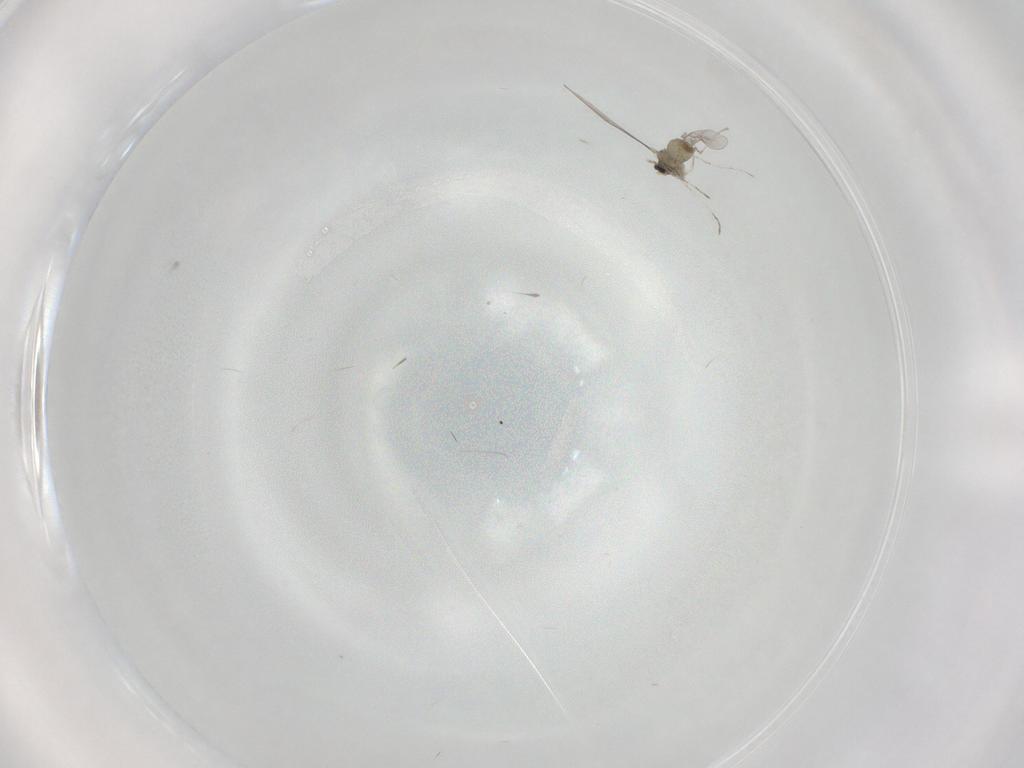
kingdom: Animalia
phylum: Arthropoda
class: Insecta
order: Diptera
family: Cecidomyiidae
